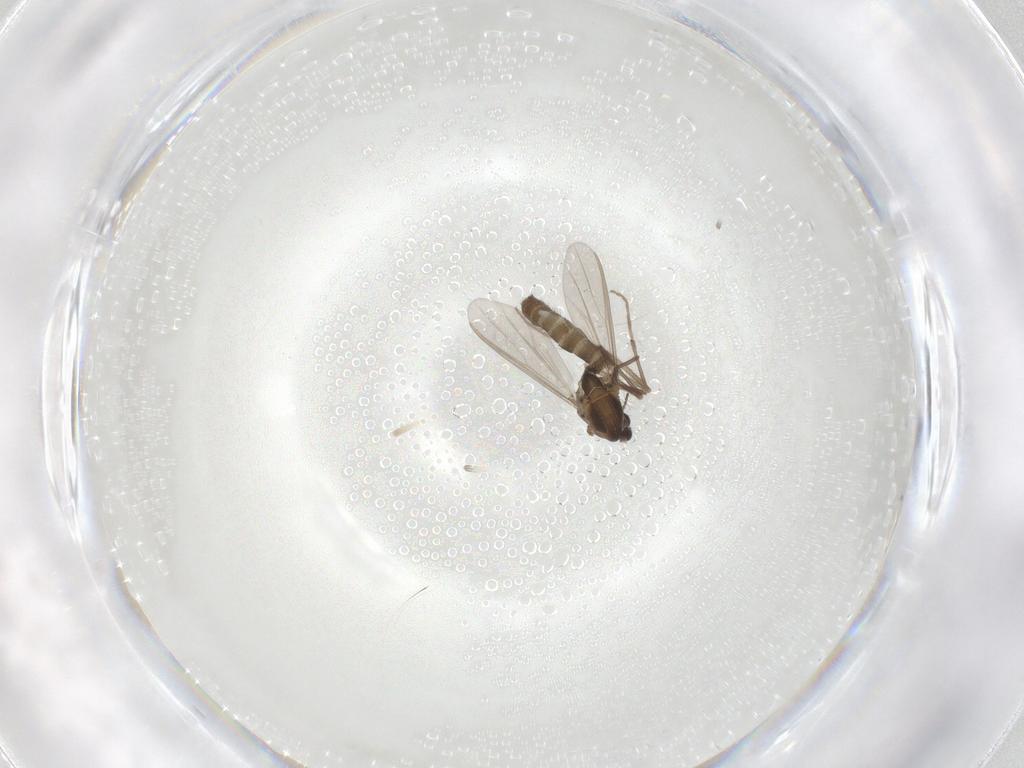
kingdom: Animalia
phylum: Arthropoda
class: Insecta
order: Diptera
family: Chironomidae
